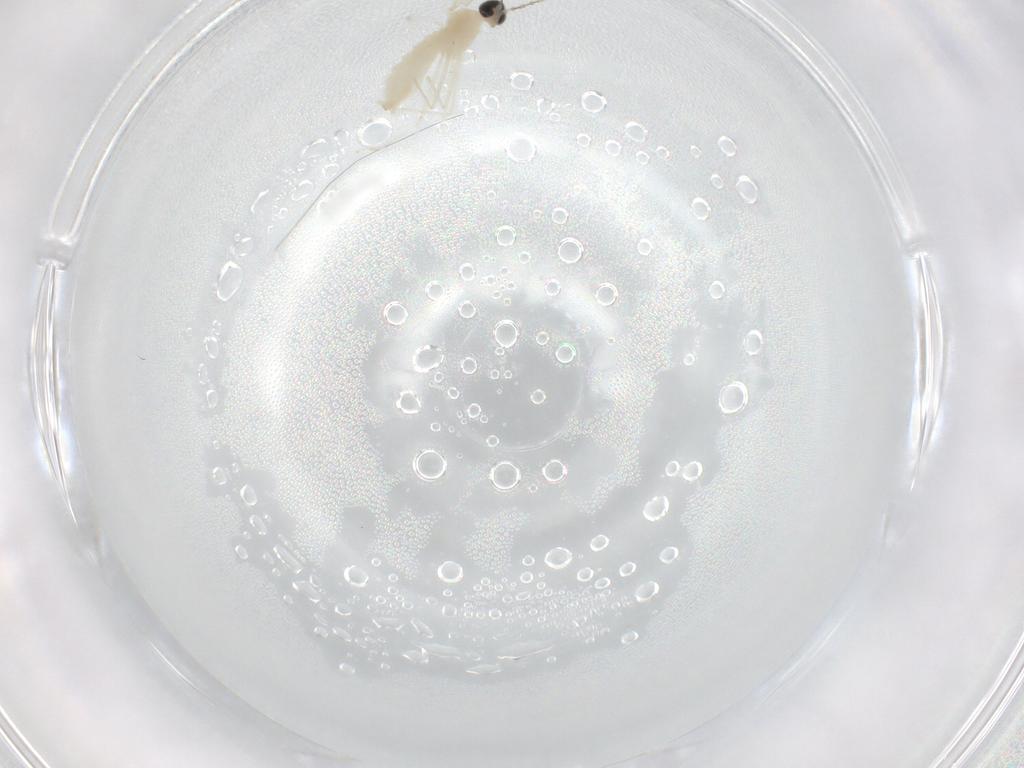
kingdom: Animalia
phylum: Arthropoda
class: Insecta
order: Diptera
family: Cecidomyiidae
